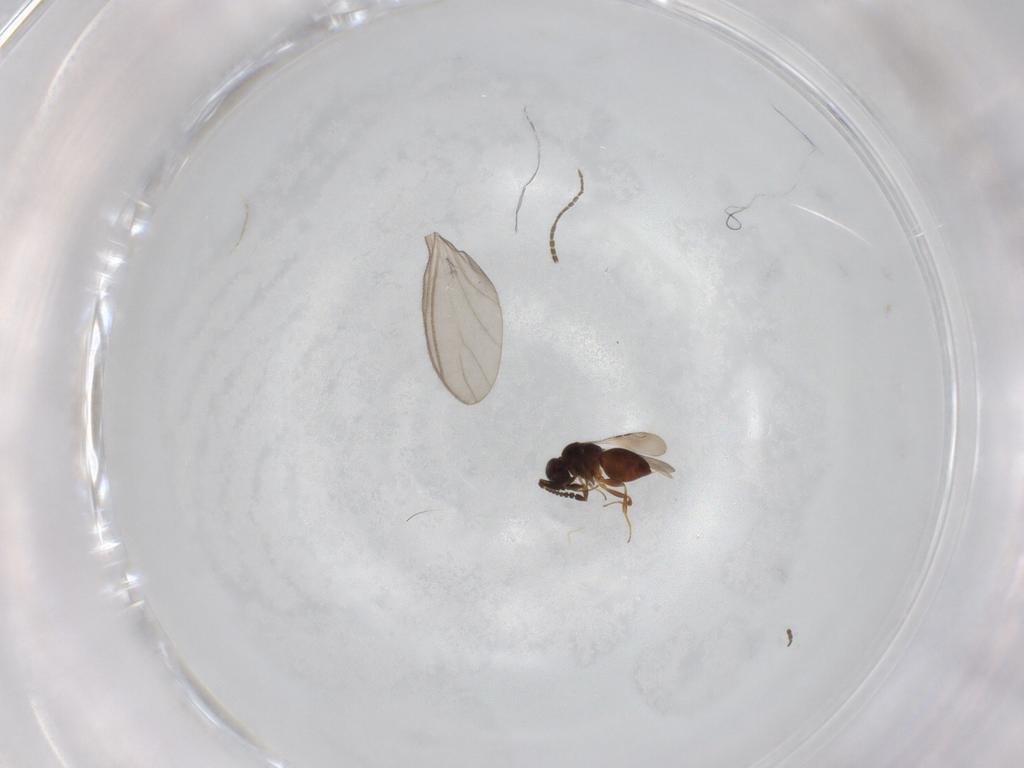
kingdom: Animalia
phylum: Arthropoda
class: Insecta
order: Hymenoptera
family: Ceraphronidae
